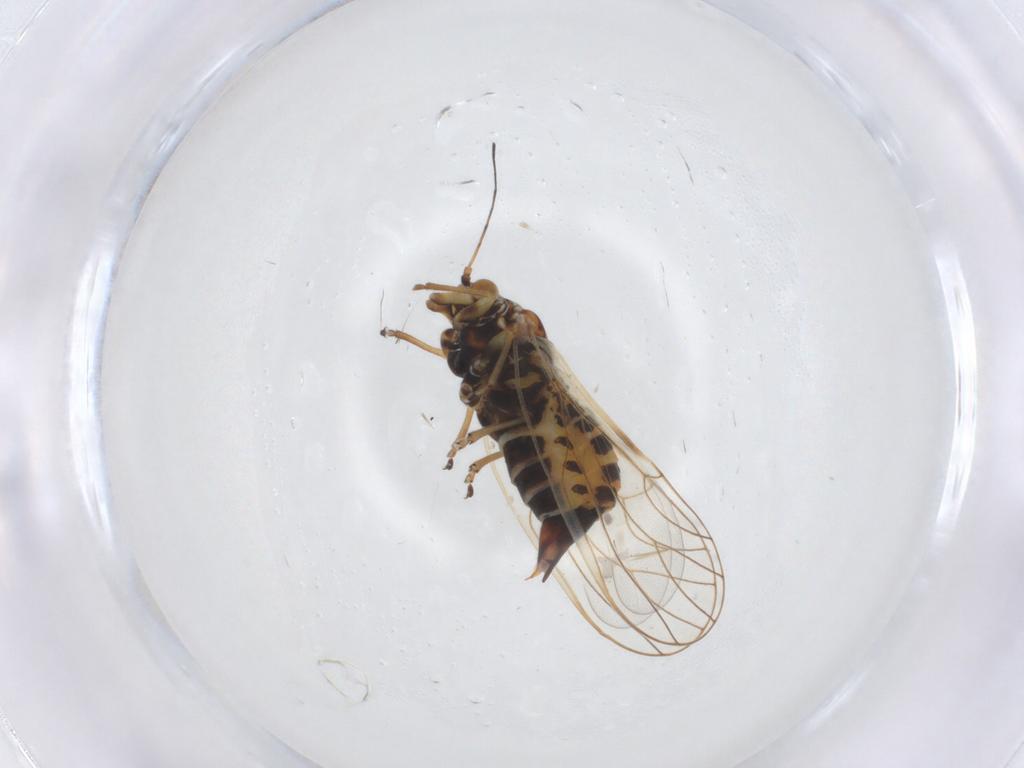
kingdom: Animalia
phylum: Arthropoda
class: Insecta
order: Hemiptera
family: Psyllidae
